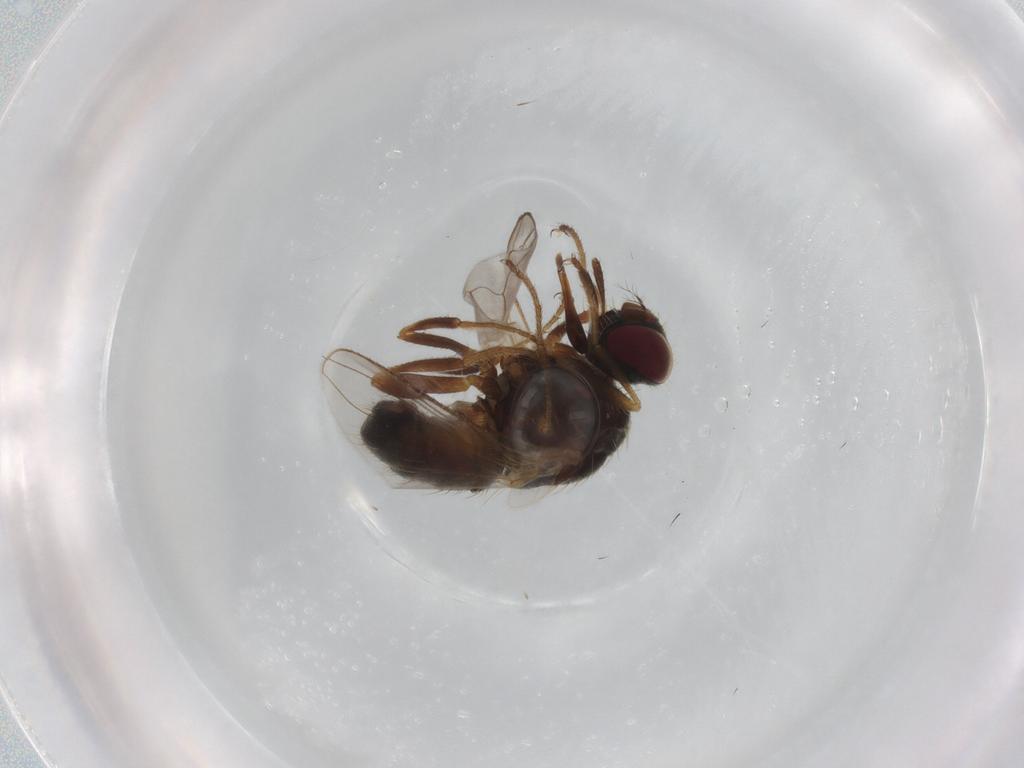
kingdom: Animalia
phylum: Arthropoda
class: Insecta
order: Diptera
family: Muscidae
